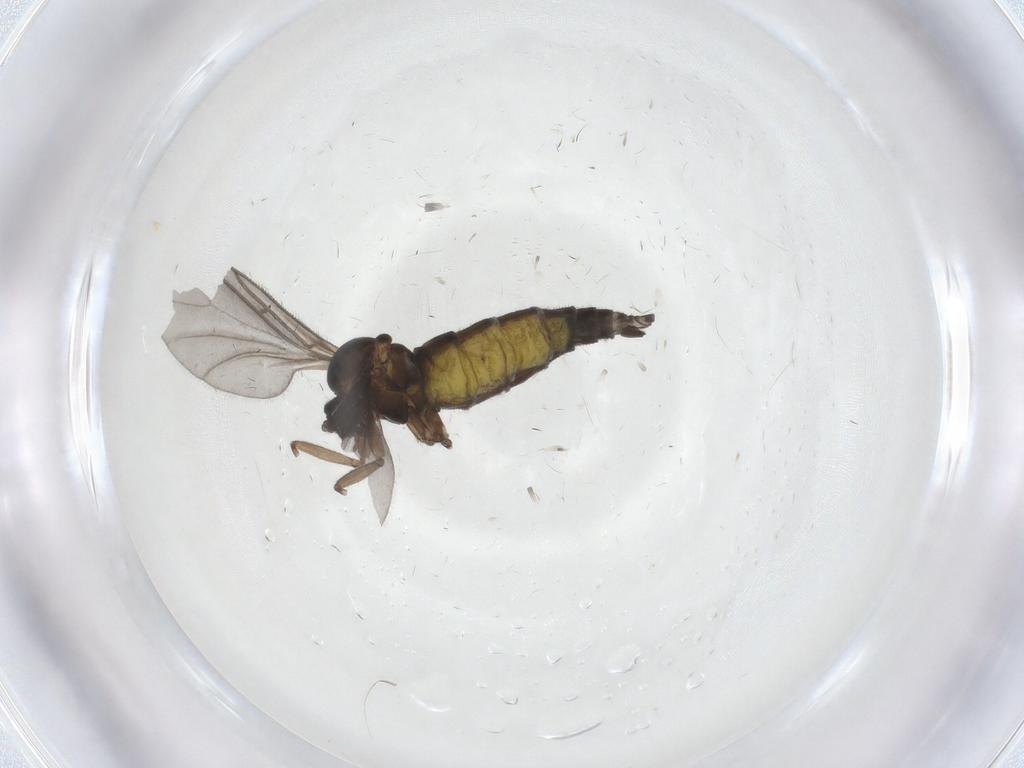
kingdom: Animalia
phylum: Arthropoda
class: Insecta
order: Diptera
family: Sciaridae
